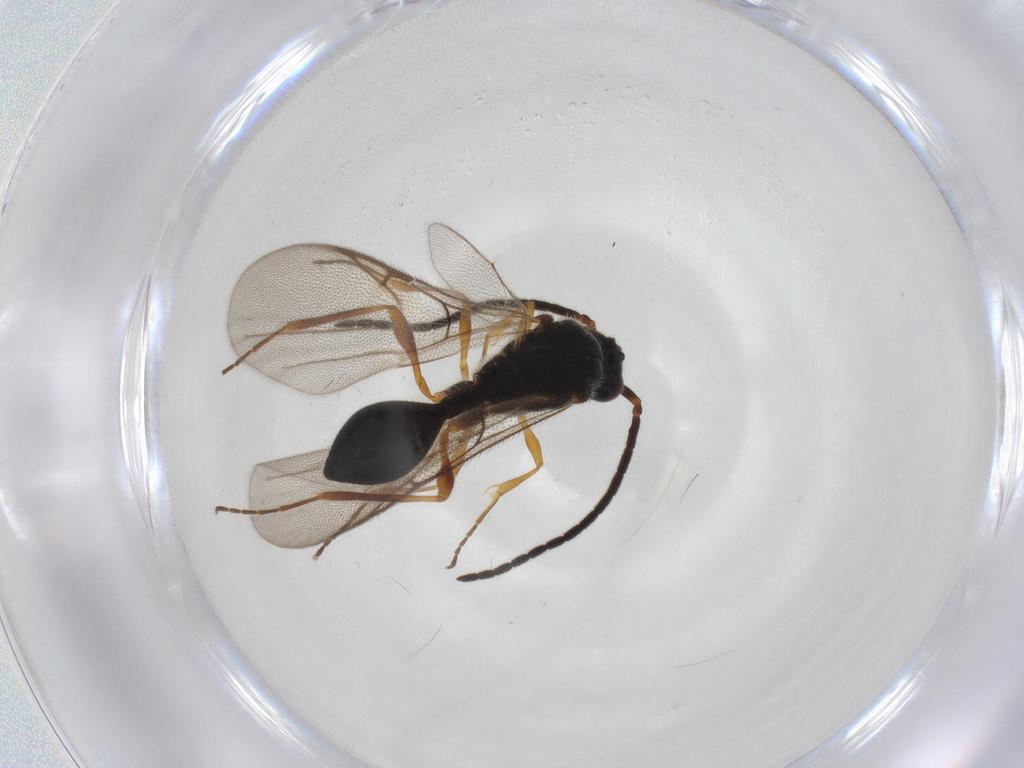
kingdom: Animalia
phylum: Arthropoda
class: Insecta
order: Hymenoptera
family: Diapriidae
